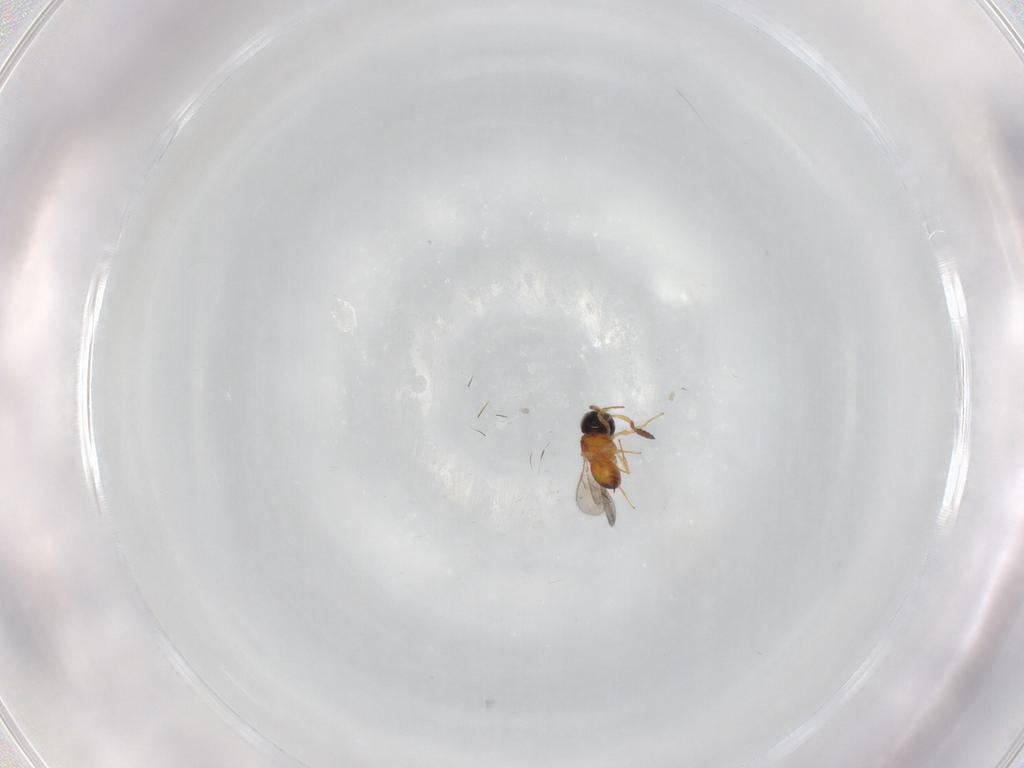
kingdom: Animalia
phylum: Arthropoda
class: Insecta
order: Hymenoptera
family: Scelionidae
